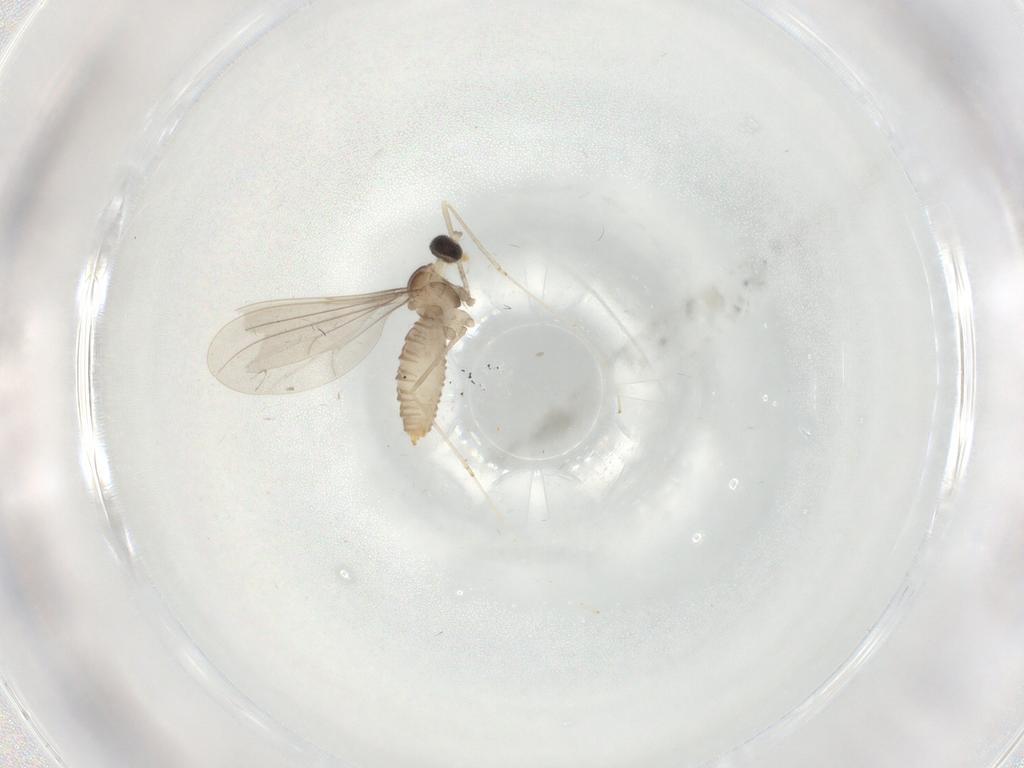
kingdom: Animalia
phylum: Arthropoda
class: Insecta
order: Diptera
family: Cecidomyiidae
